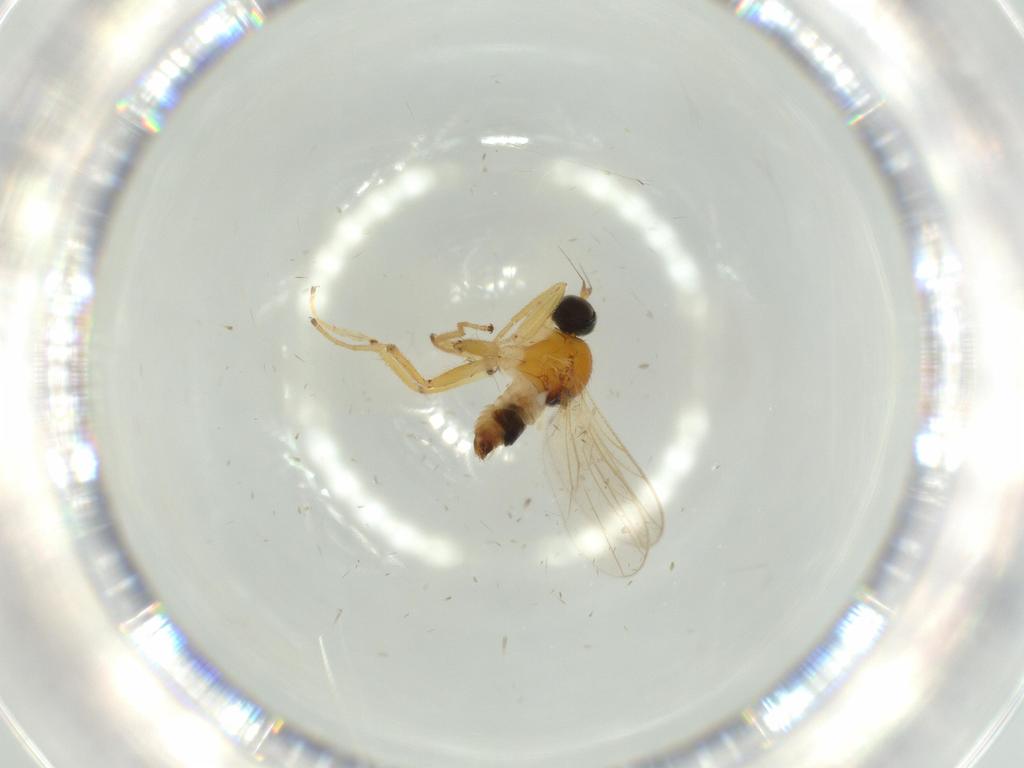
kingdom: Animalia
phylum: Arthropoda
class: Insecta
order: Diptera
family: Hybotidae
